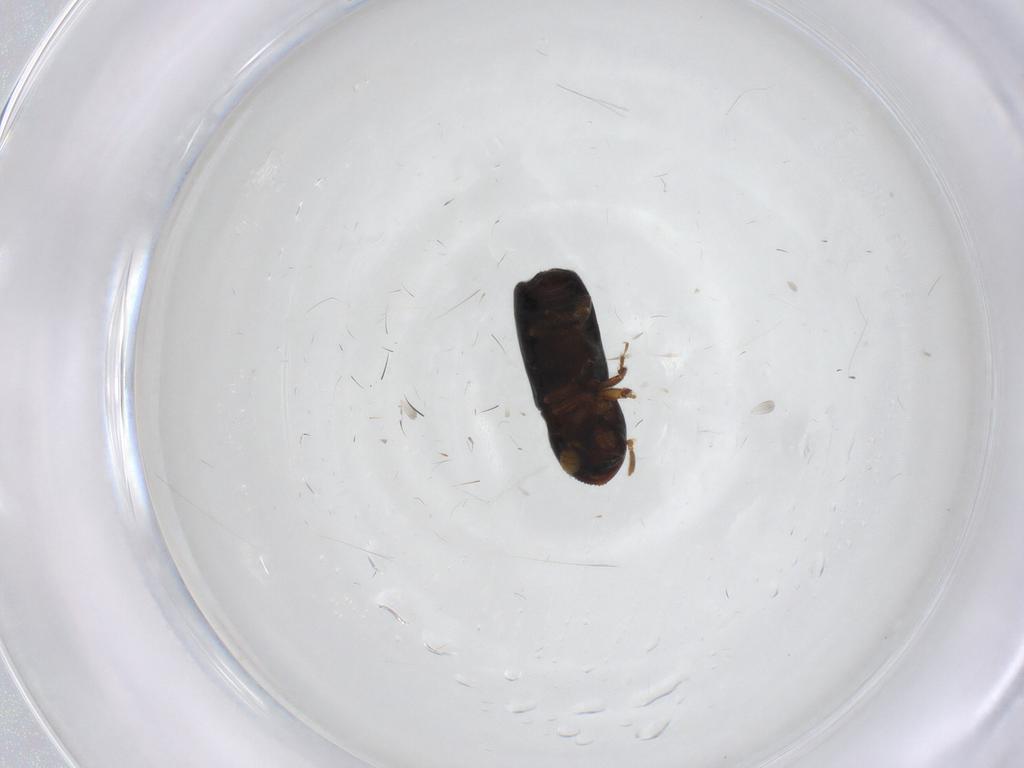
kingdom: Animalia
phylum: Arthropoda
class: Insecta
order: Coleoptera
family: Curculionidae
